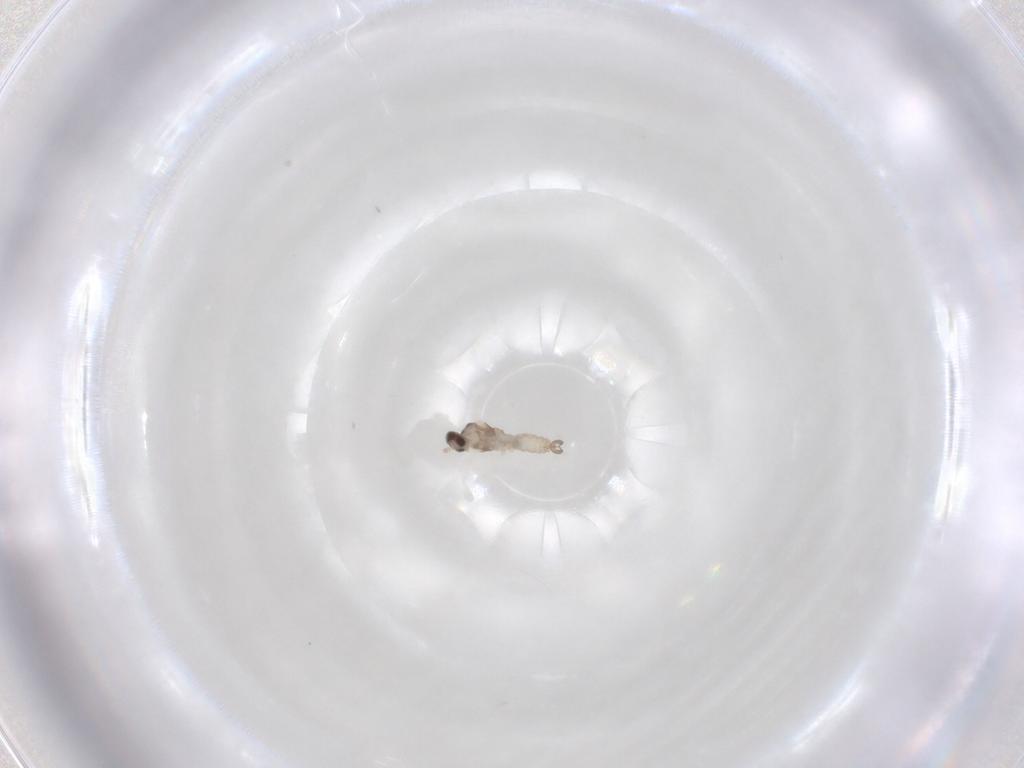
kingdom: Animalia
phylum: Arthropoda
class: Insecta
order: Diptera
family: Cecidomyiidae
